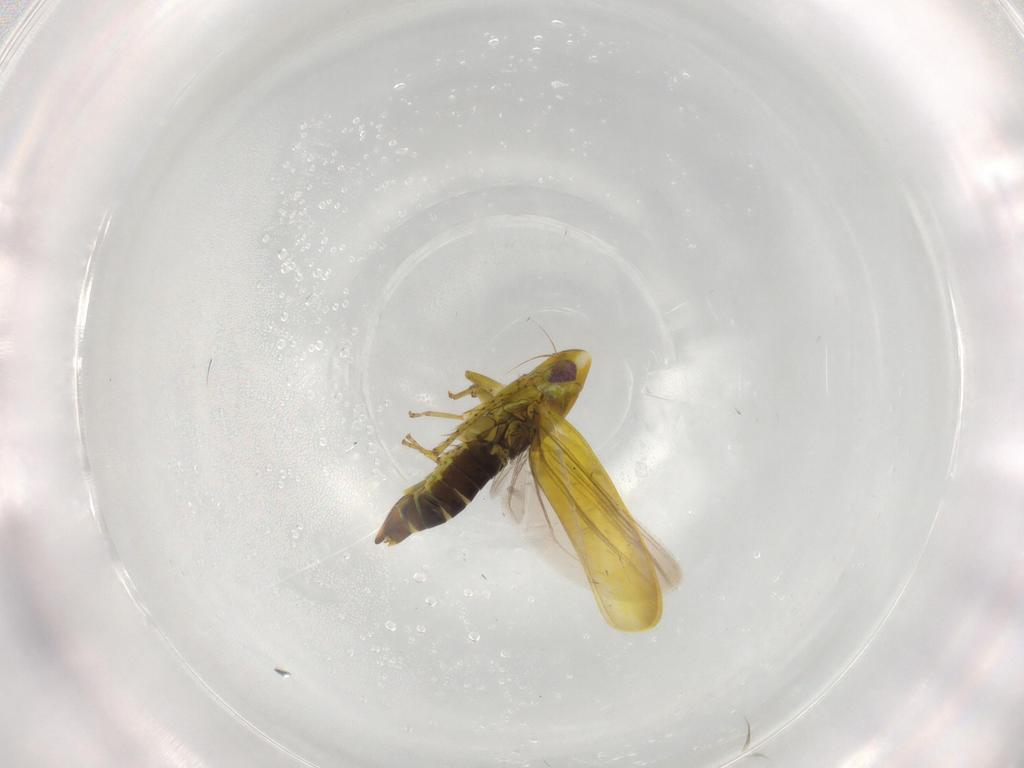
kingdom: Animalia
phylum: Arthropoda
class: Insecta
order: Hemiptera
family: Cicadellidae
